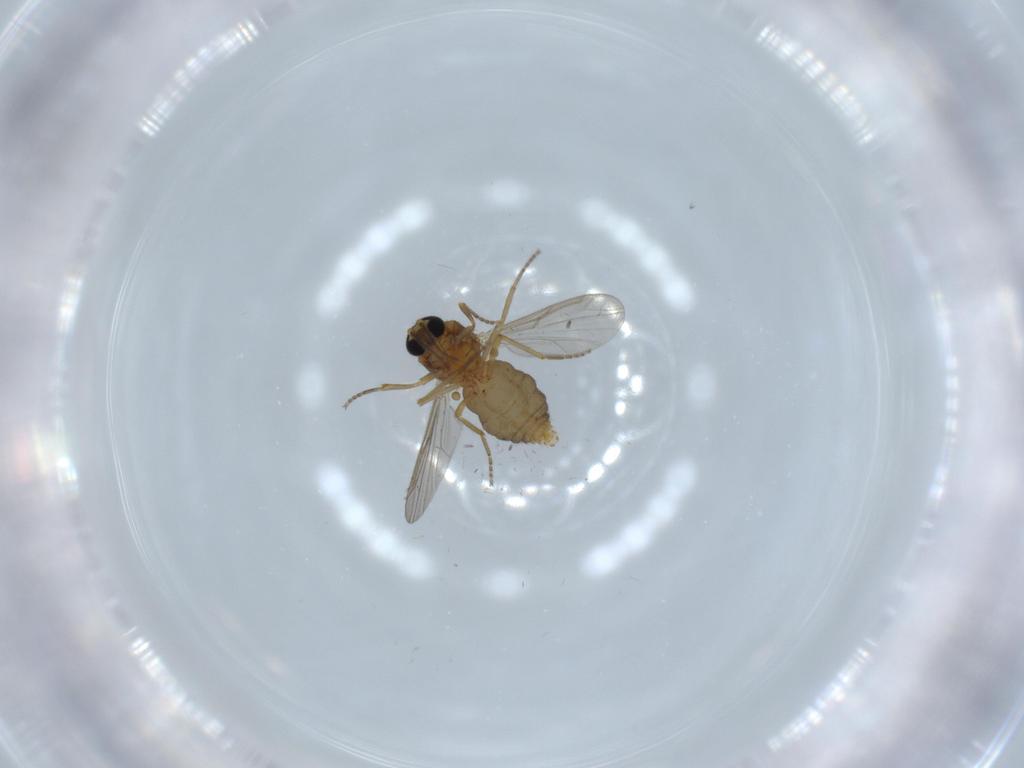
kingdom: Animalia
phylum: Arthropoda
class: Insecta
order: Diptera
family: Ceratopogonidae
